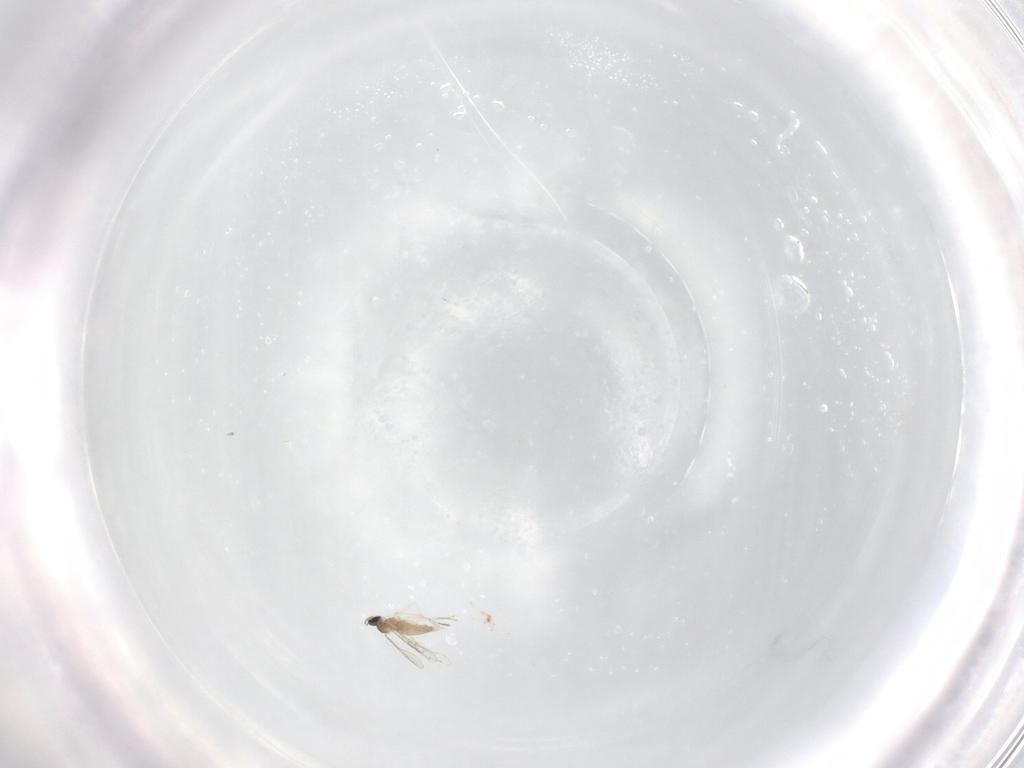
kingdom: Animalia
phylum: Arthropoda
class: Insecta
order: Diptera
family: Tabanidae
